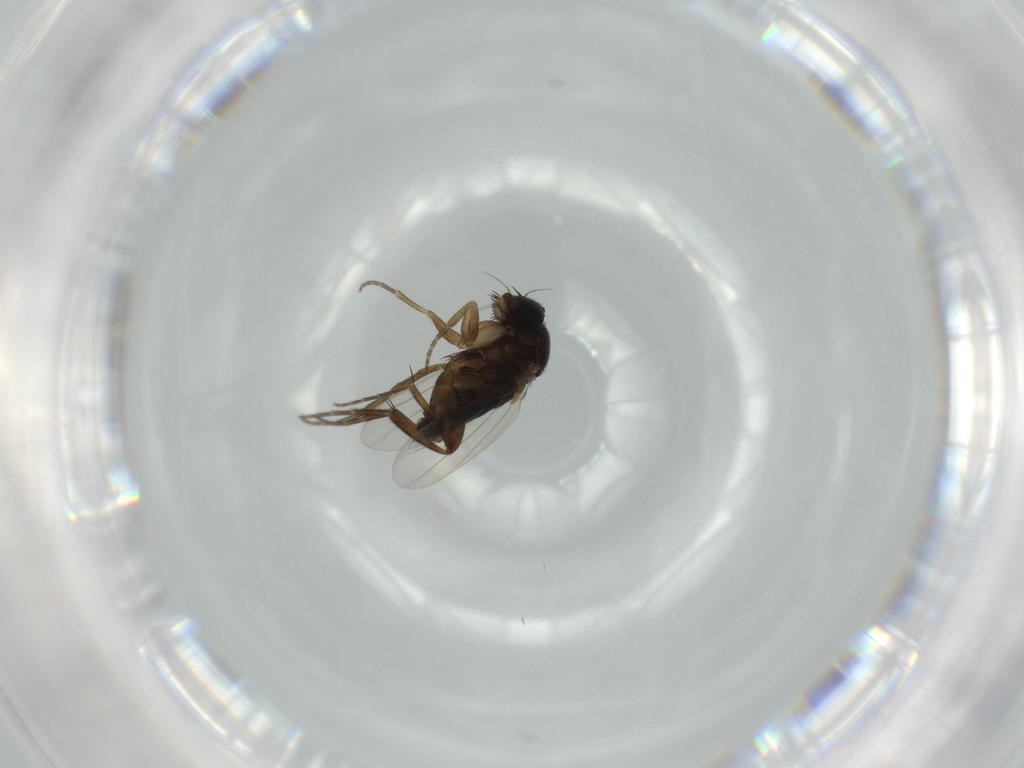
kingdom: Animalia
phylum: Arthropoda
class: Insecta
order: Diptera
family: Phoridae
